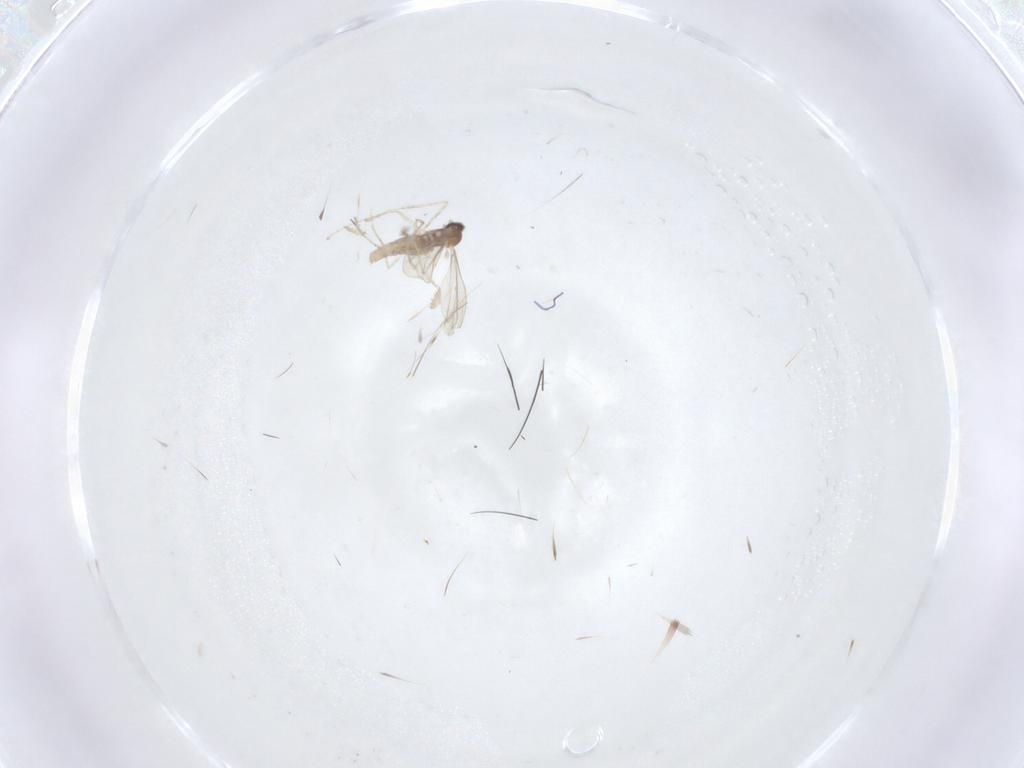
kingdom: Animalia
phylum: Arthropoda
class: Insecta
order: Diptera
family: Cecidomyiidae
